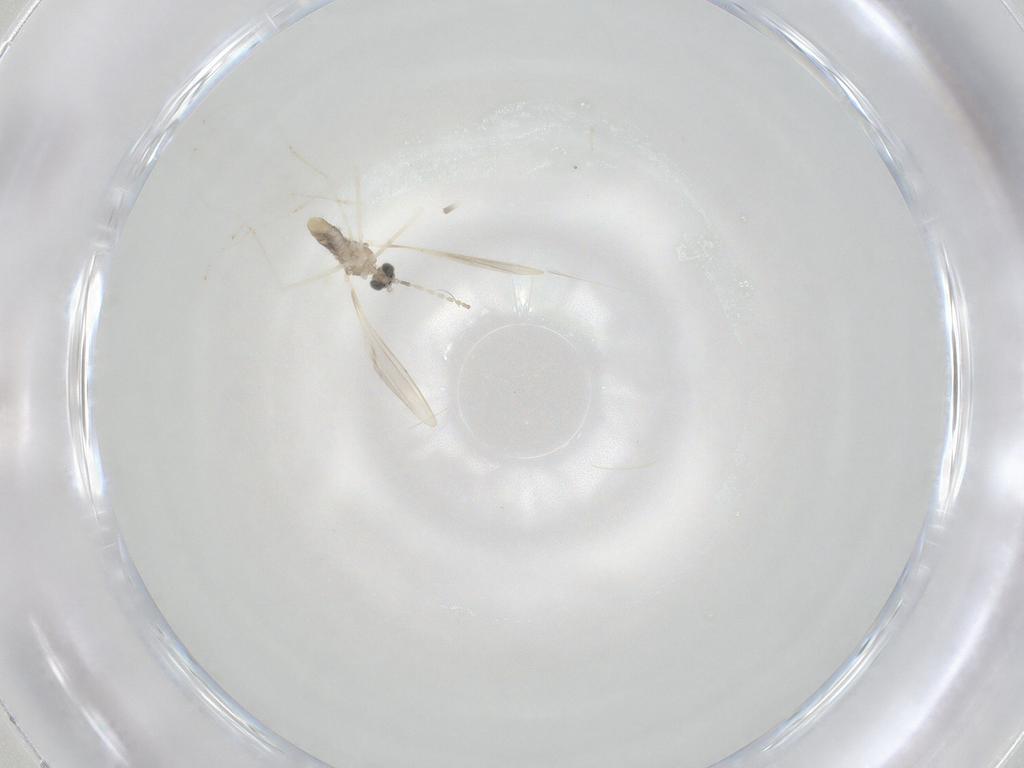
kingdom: Animalia
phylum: Arthropoda
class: Insecta
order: Diptera
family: Cecidomyiidae
